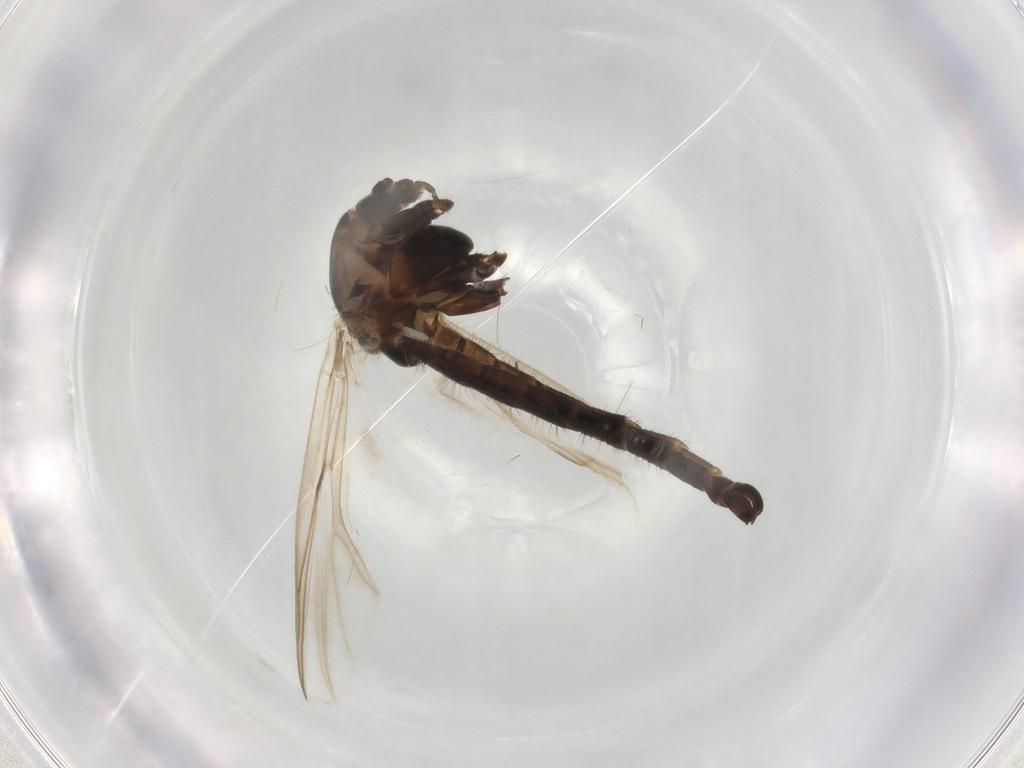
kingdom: Animalia
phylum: Arthropoda
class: Insecta
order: Diptera
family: Chironomidae
